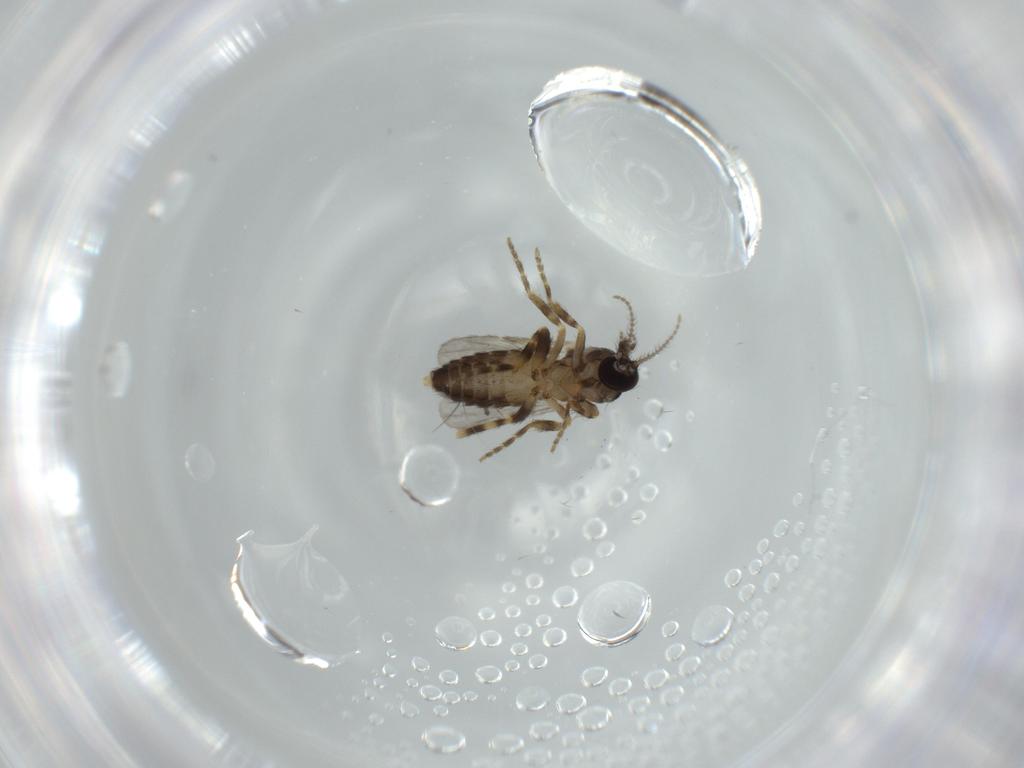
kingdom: Animalia
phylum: Arthropoda
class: Insecta
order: Diptera
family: Ceratopogonidae
